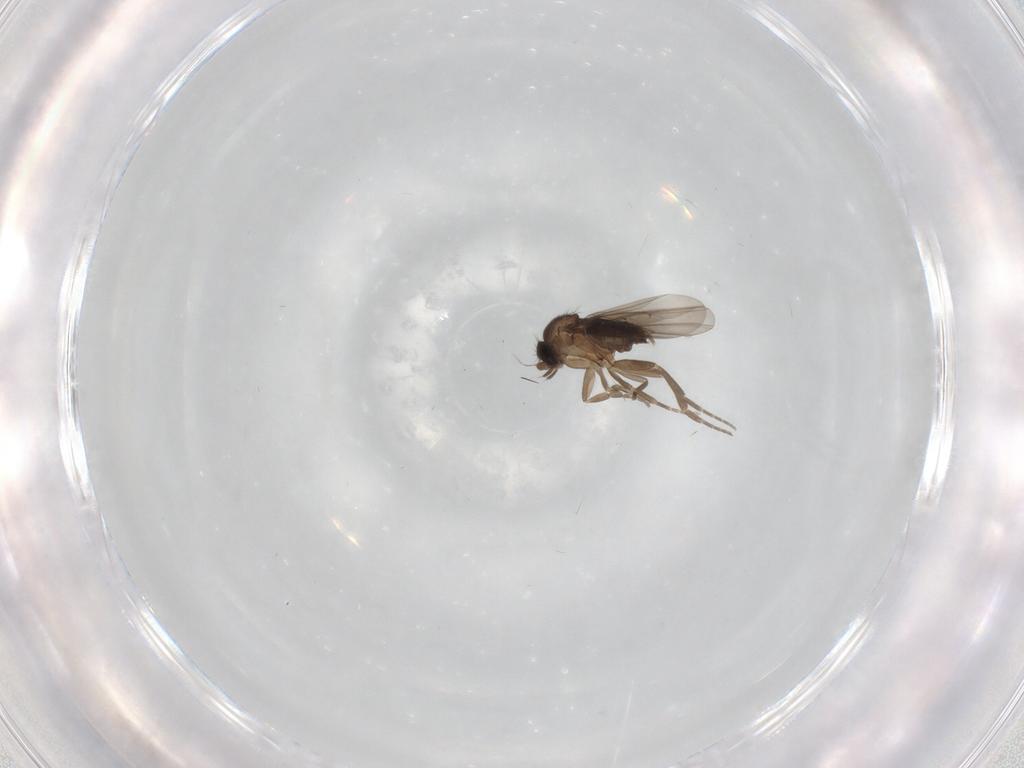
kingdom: Animalia
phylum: Arthropoda
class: Insecta
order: Diptera
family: Phoridae
